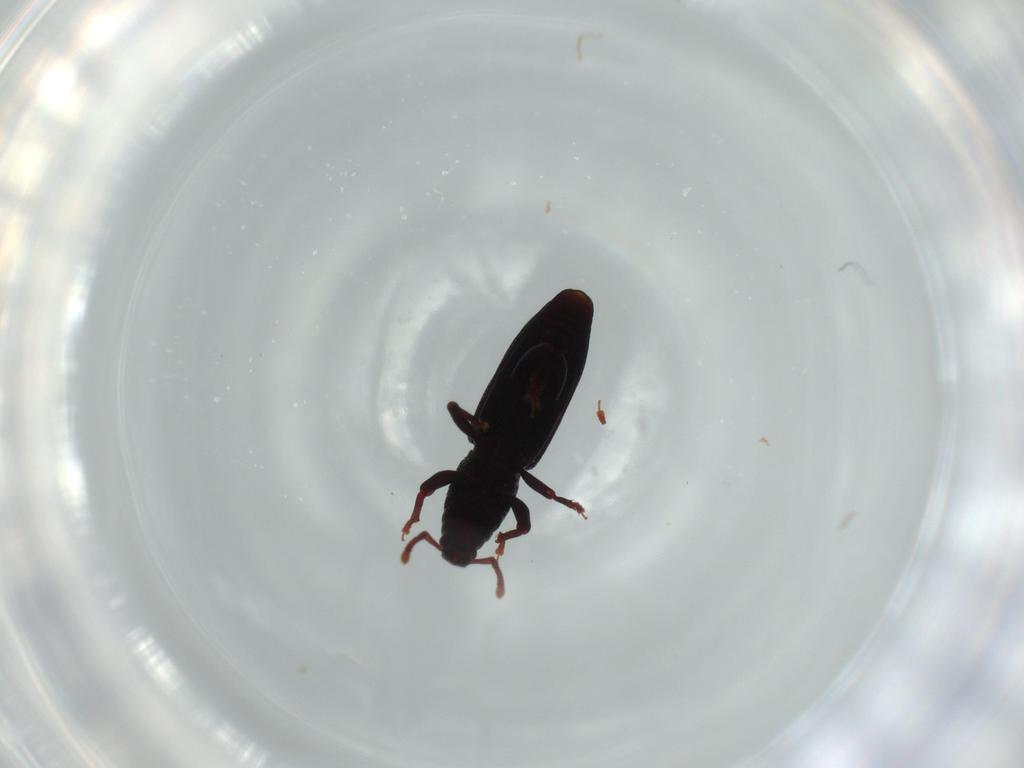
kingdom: Animalia
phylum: Arthropoda
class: Insecta
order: Coleoptera
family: Curculionidae
